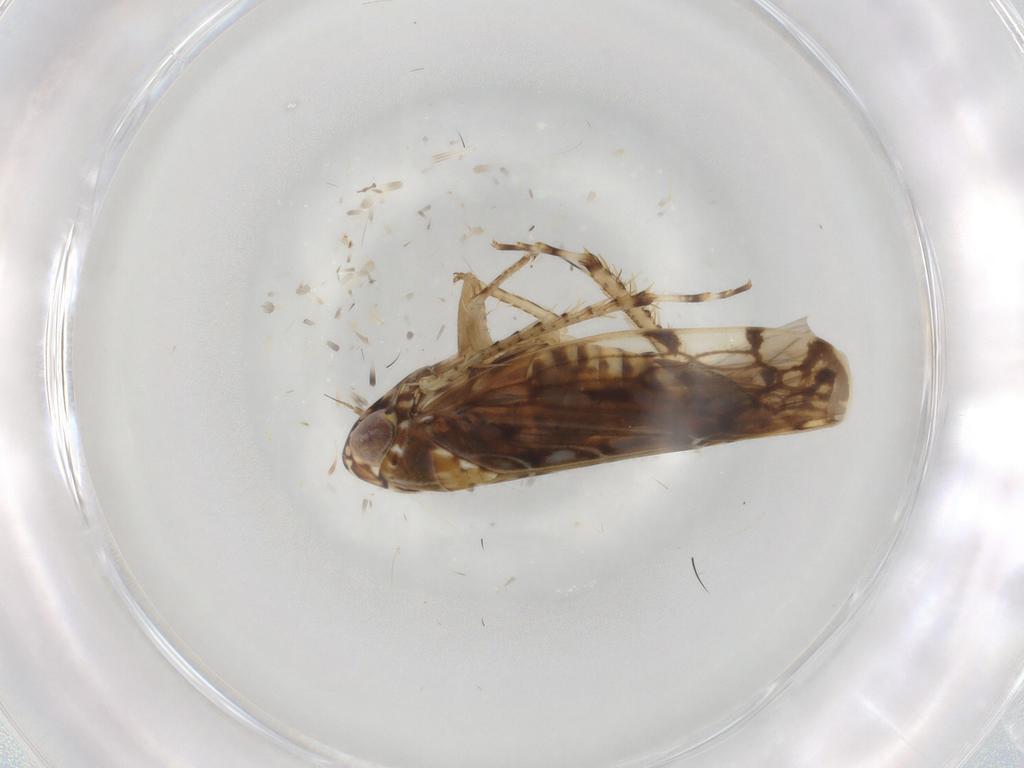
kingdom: Animalia
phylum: Arthropoda
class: Insecta
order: Hemiptera
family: Cicadellidae
